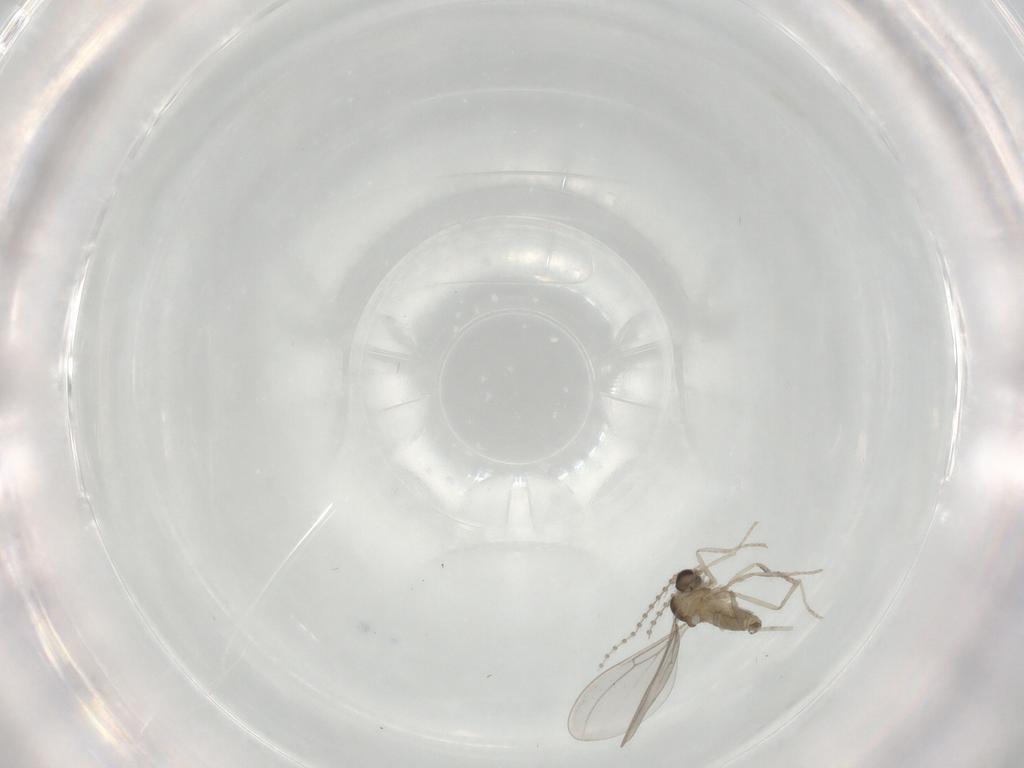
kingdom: Animalia
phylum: Arthropoda
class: Insecta
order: Diptera
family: Cecidomyiidae
